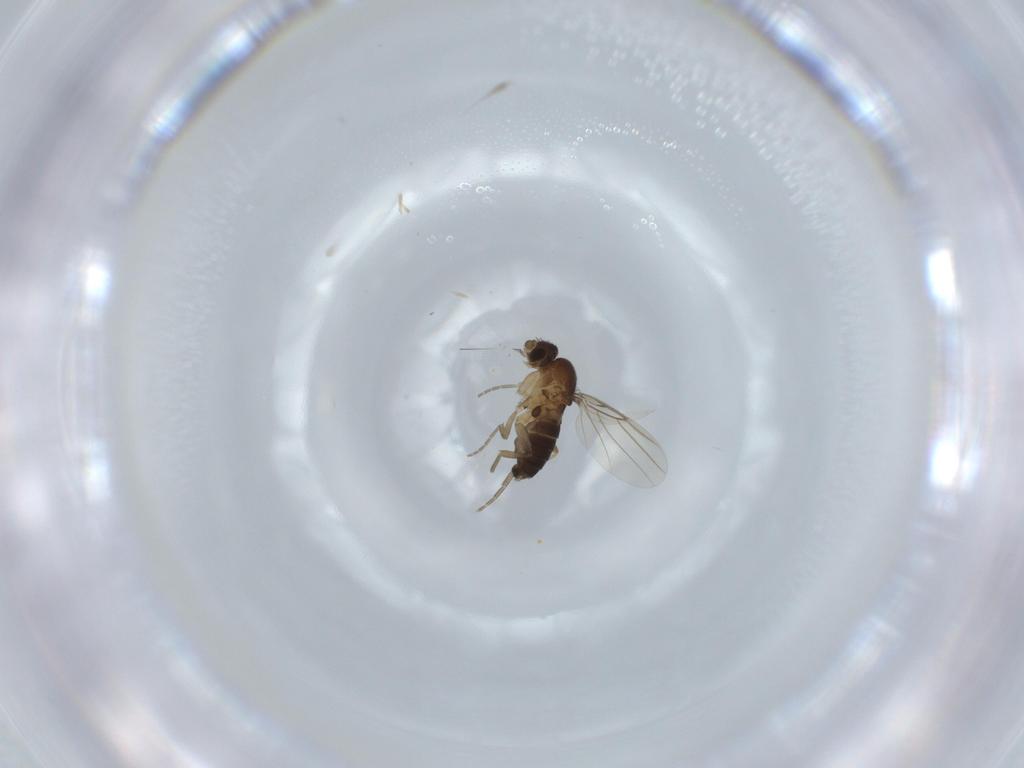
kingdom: Animalia
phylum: Arthropoda
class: Insecta
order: Diptera
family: Phoridae
